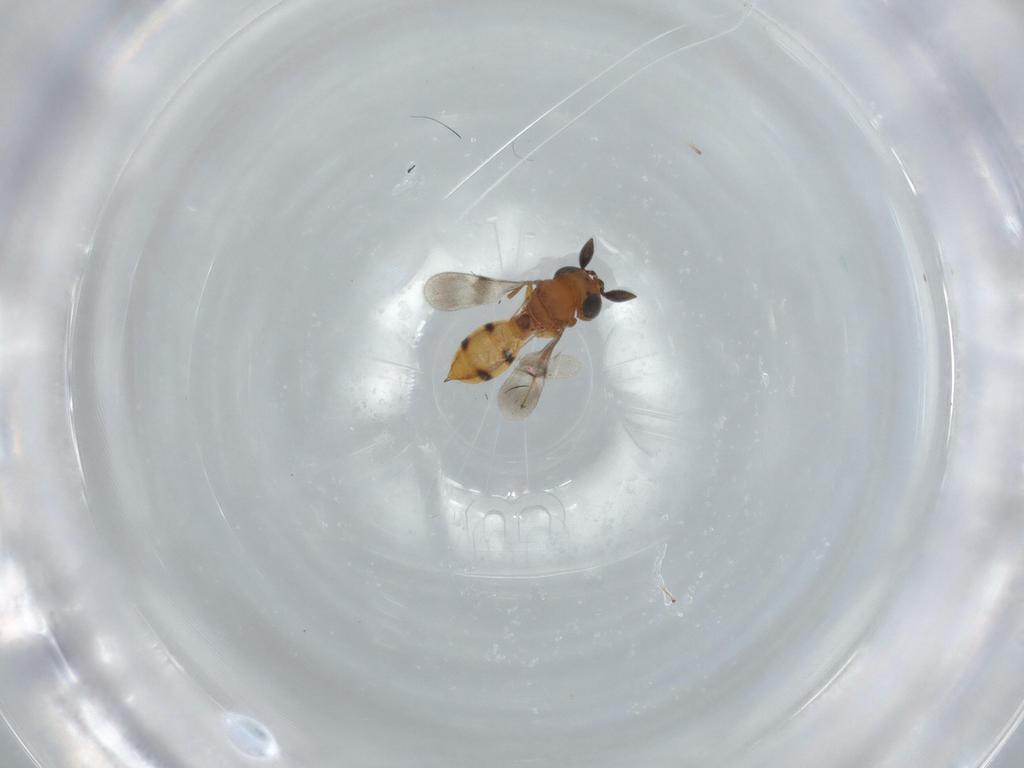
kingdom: Animalia
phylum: Arthropoda
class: Insecta
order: Hymenoptera
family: Scelionidae
